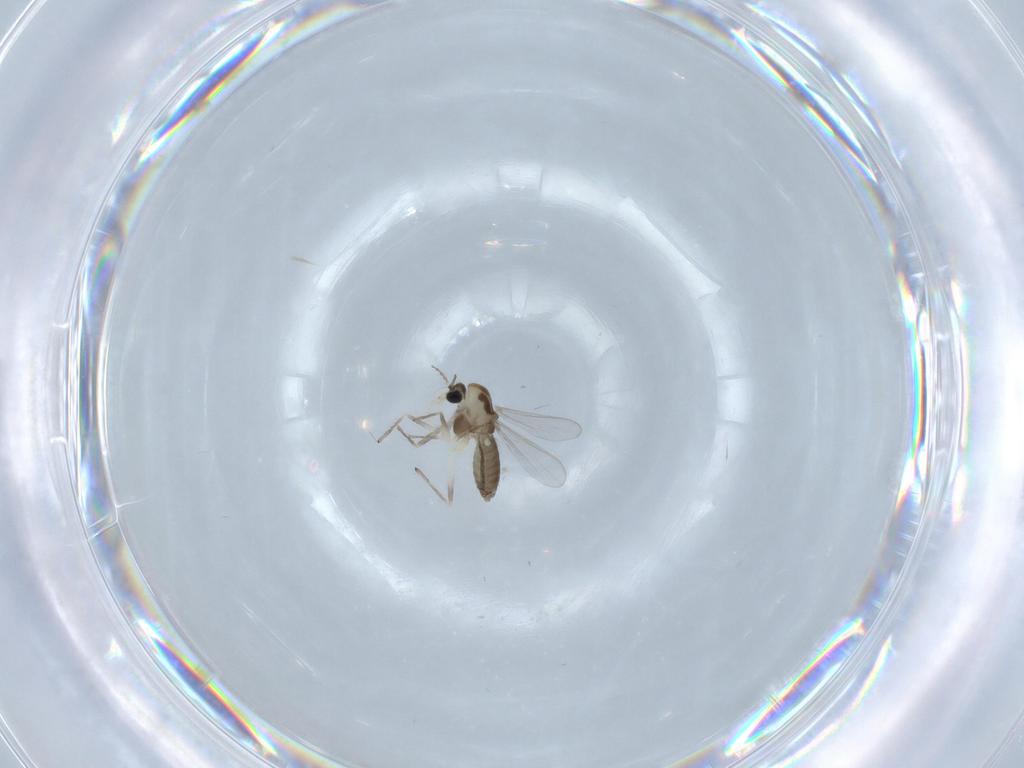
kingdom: Animalia
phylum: Arthropoda
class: Insecta
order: Diptera
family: Chironomidae
